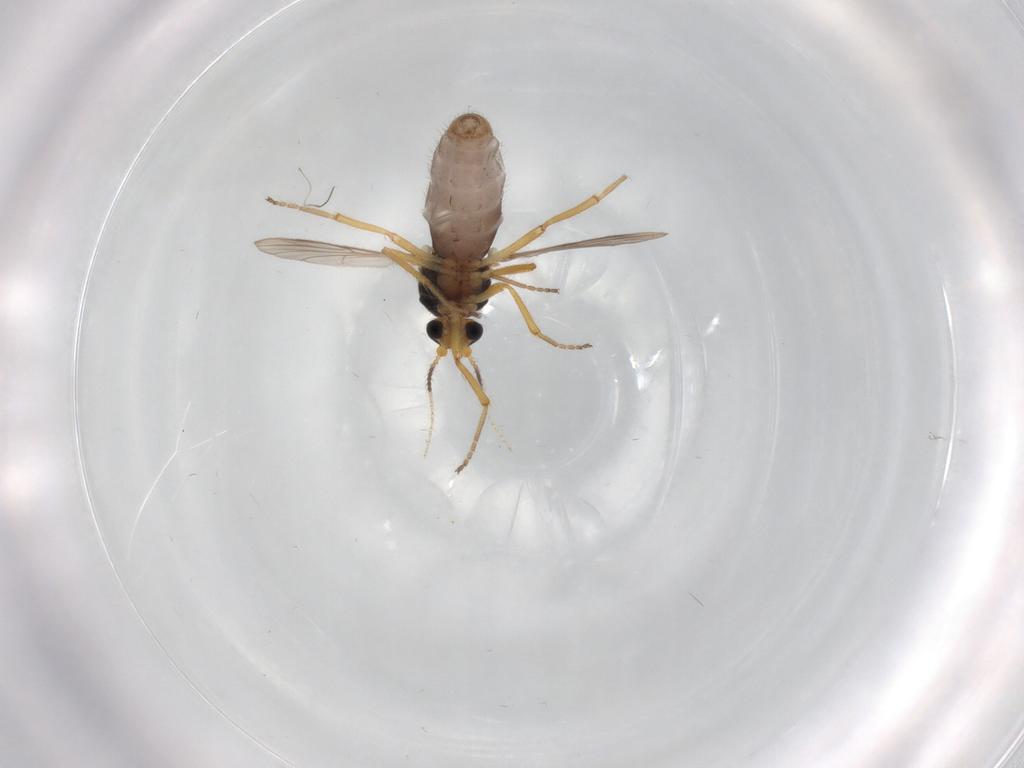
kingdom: Animalia
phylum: Arthropoda
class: Insecta
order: Diptera
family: Ceratopogonidae
